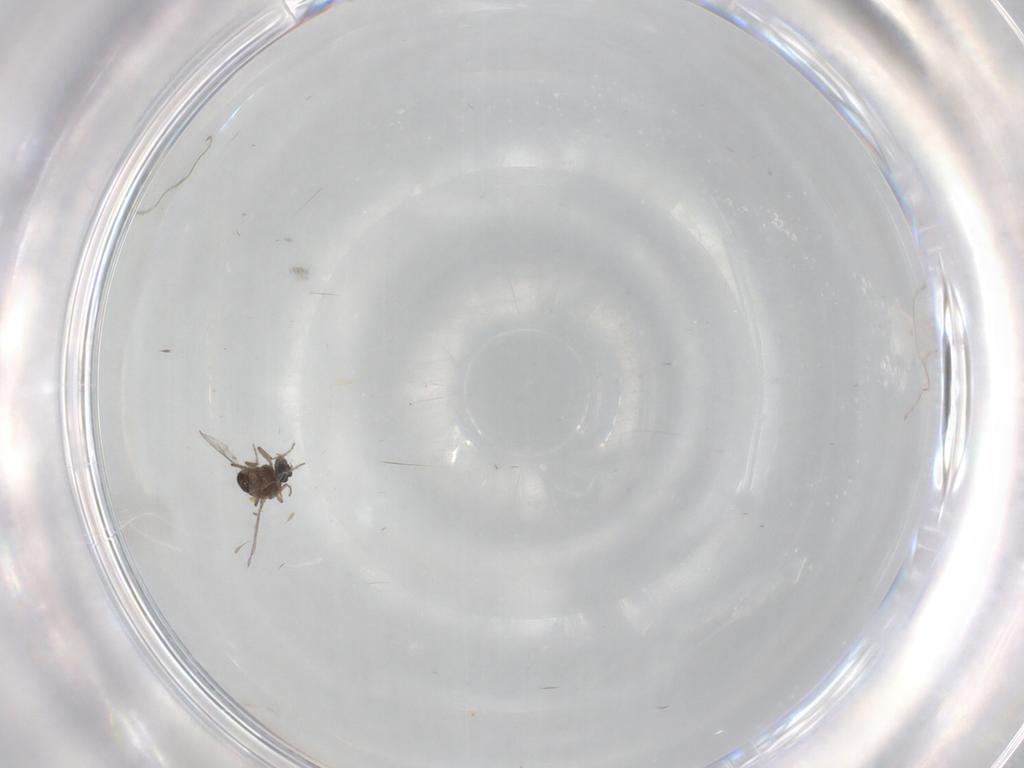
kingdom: Animalia
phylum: Arthropoda
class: Insecta
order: Diptera
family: Ceratopogonidae
